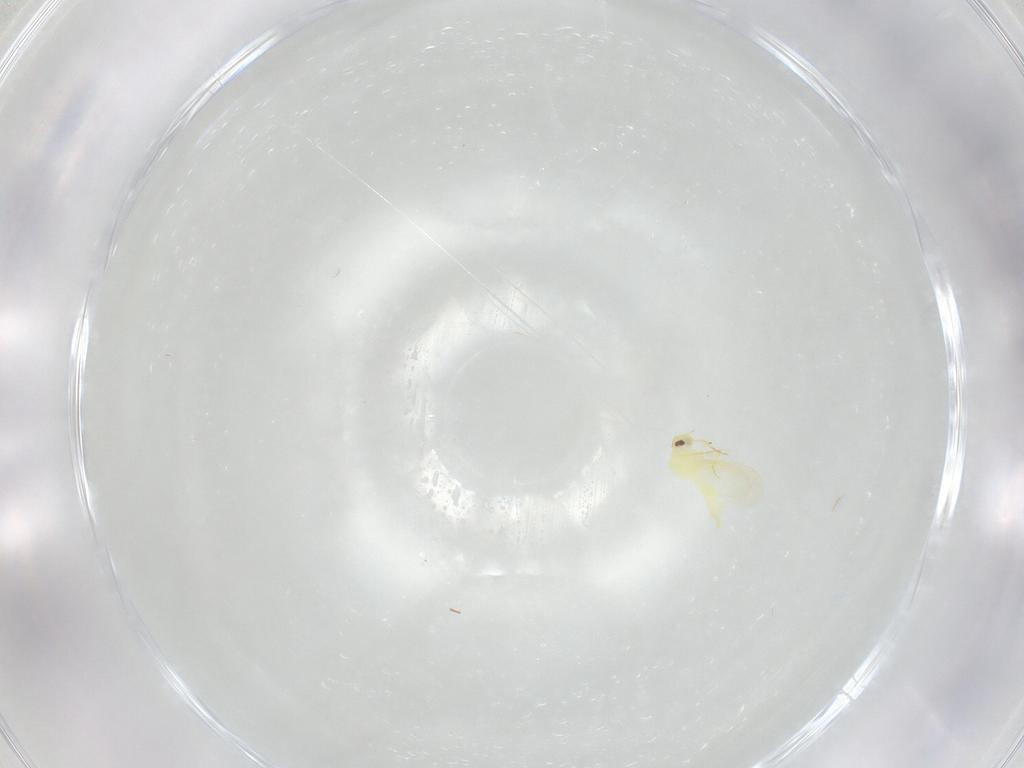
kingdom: Animalia
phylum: Arthropoda
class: Insecta
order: Hemiptera
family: Aleyrodidae
